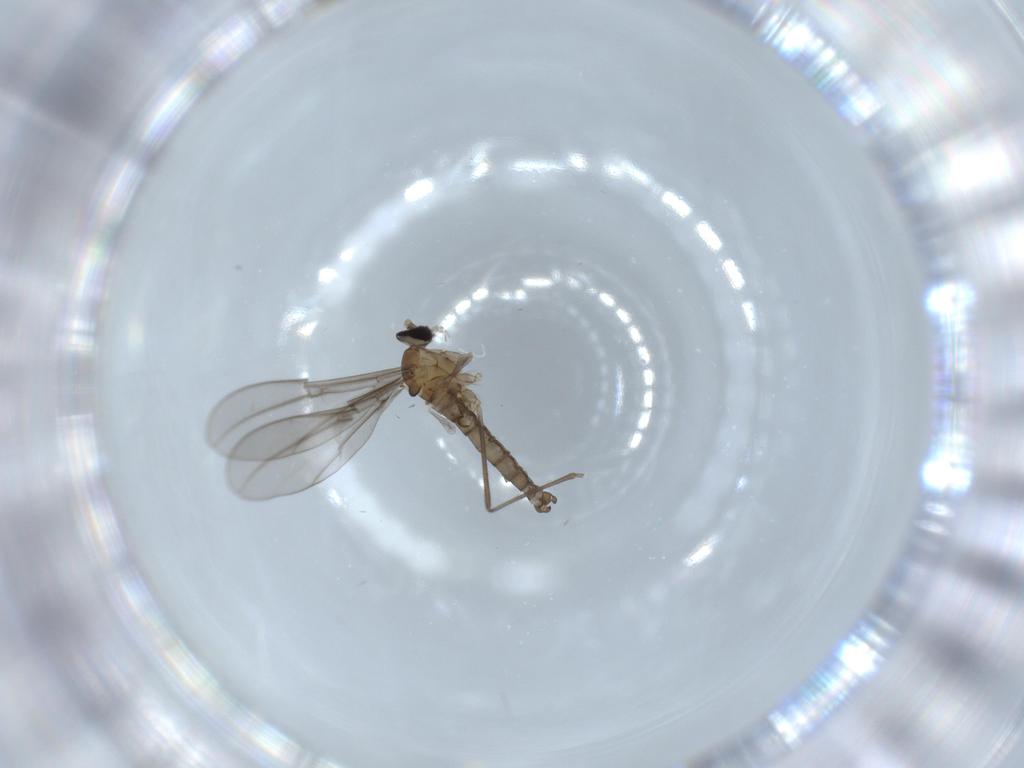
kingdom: Animalia
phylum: Arthropoda
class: Insecta
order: Diptera
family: Cecidomyiidae
